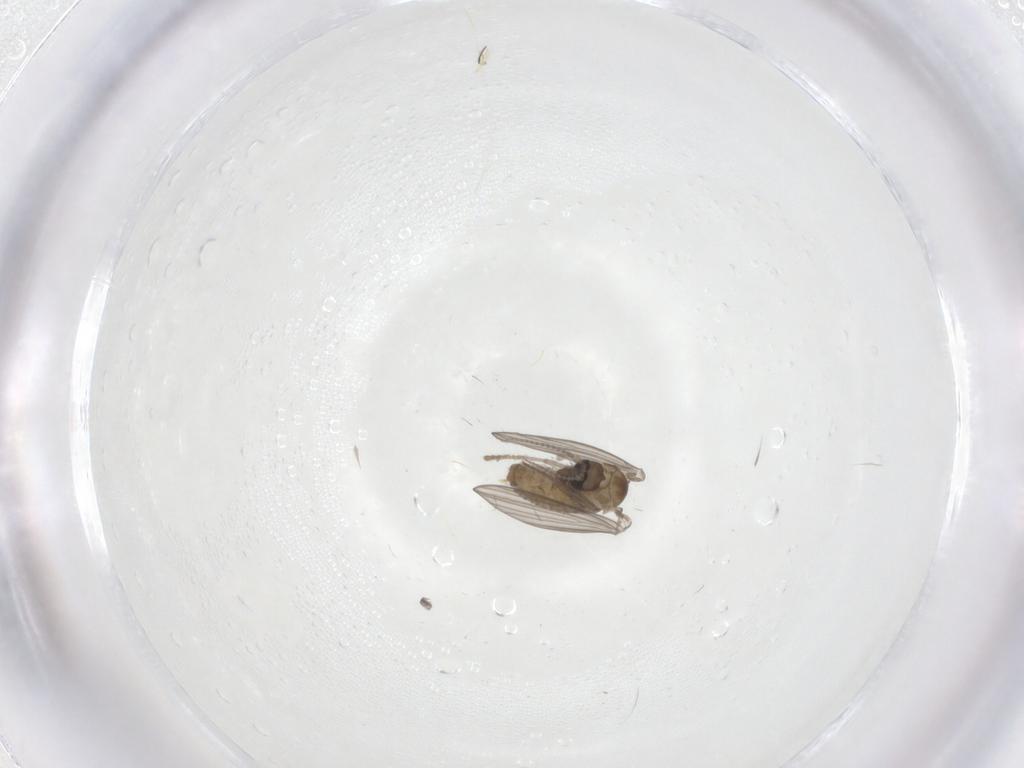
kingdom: Animalia
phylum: Arthropoda
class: Insecta
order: Diptera
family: Psychodidae
